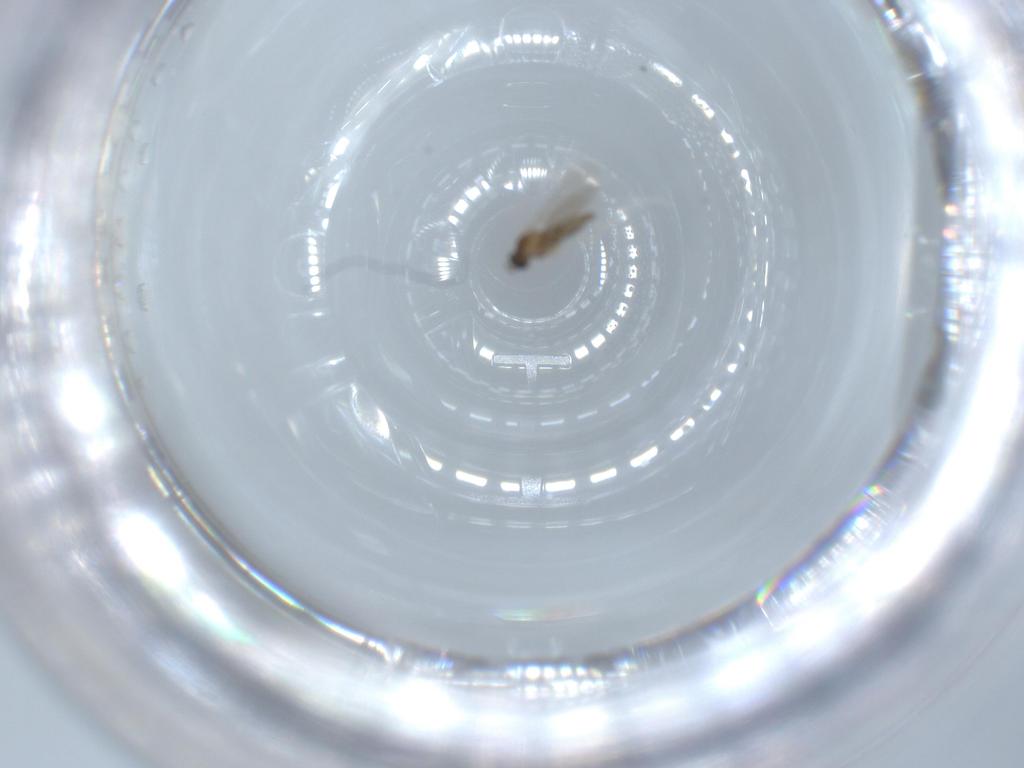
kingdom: Animalia
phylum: Arthropoda
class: Insecta
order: Diptera
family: Cecidomyiidae
